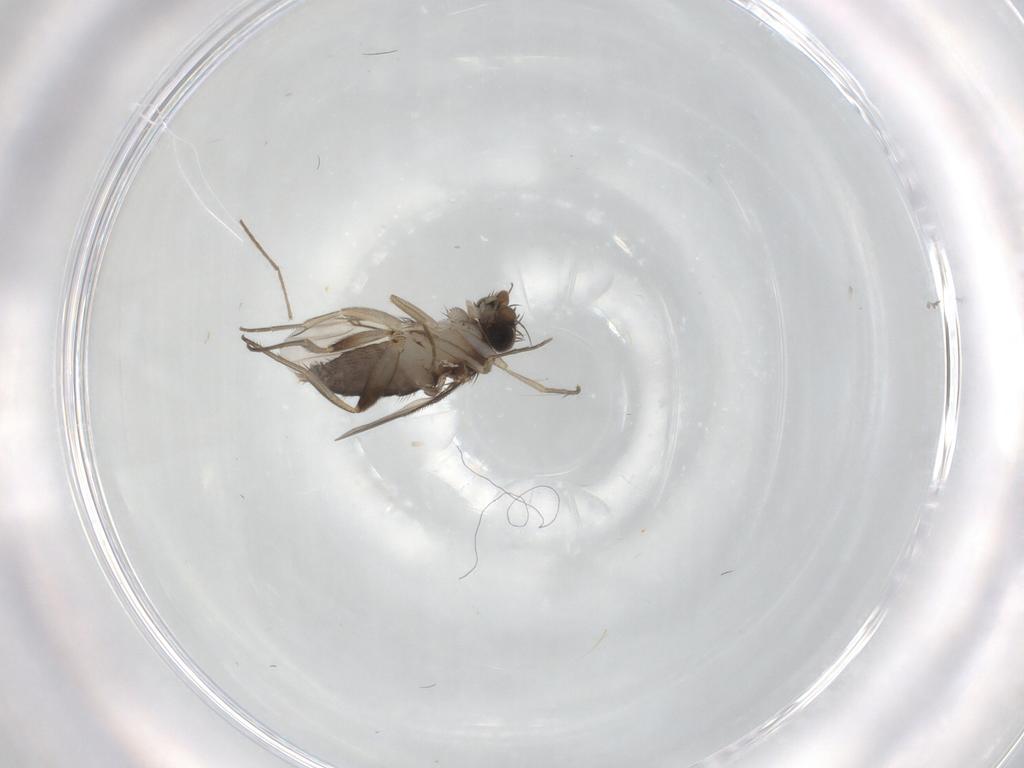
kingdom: Animalia
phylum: Arthropoda
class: Insecta
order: Diptera
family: Phoridae
